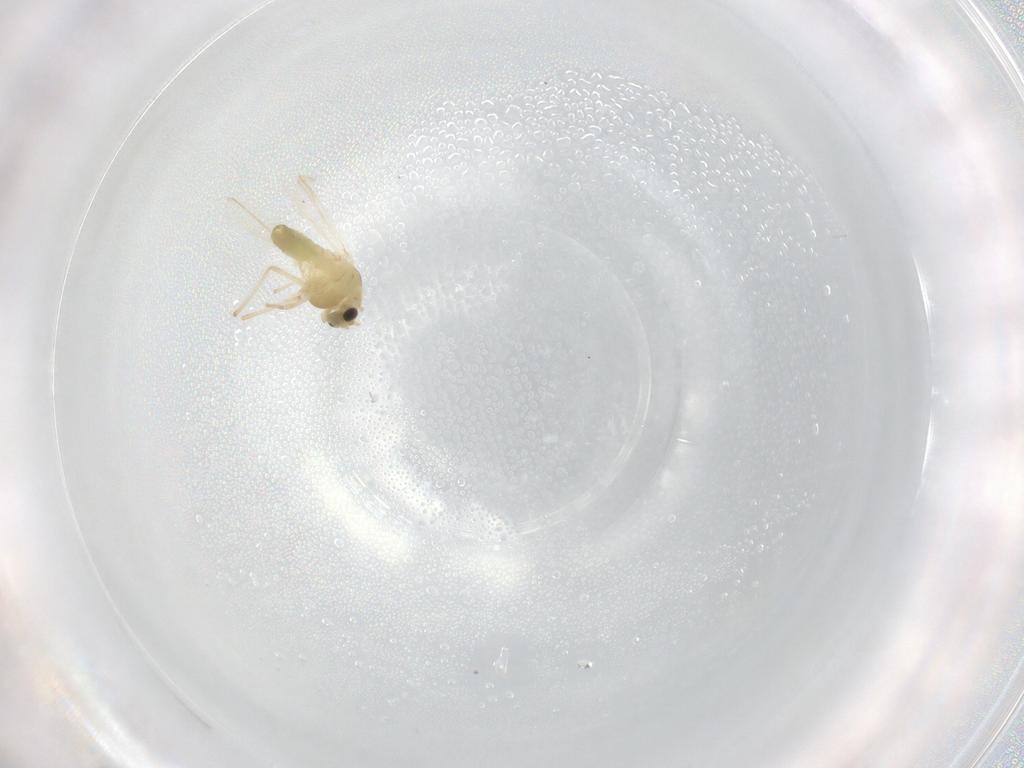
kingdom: Animalia
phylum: Arthropoda
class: Insecta
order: Diptera
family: Chironomidae
